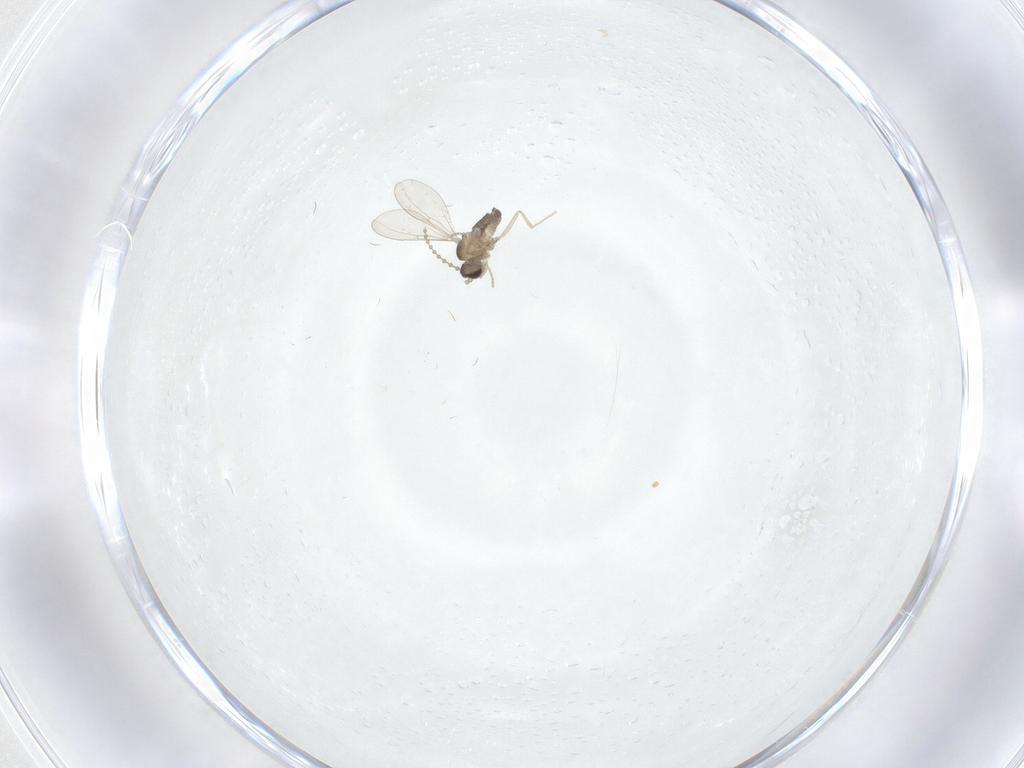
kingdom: Animalia
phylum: Arthropoda
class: Insecta
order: Diptera
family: Cecidomyiidae
